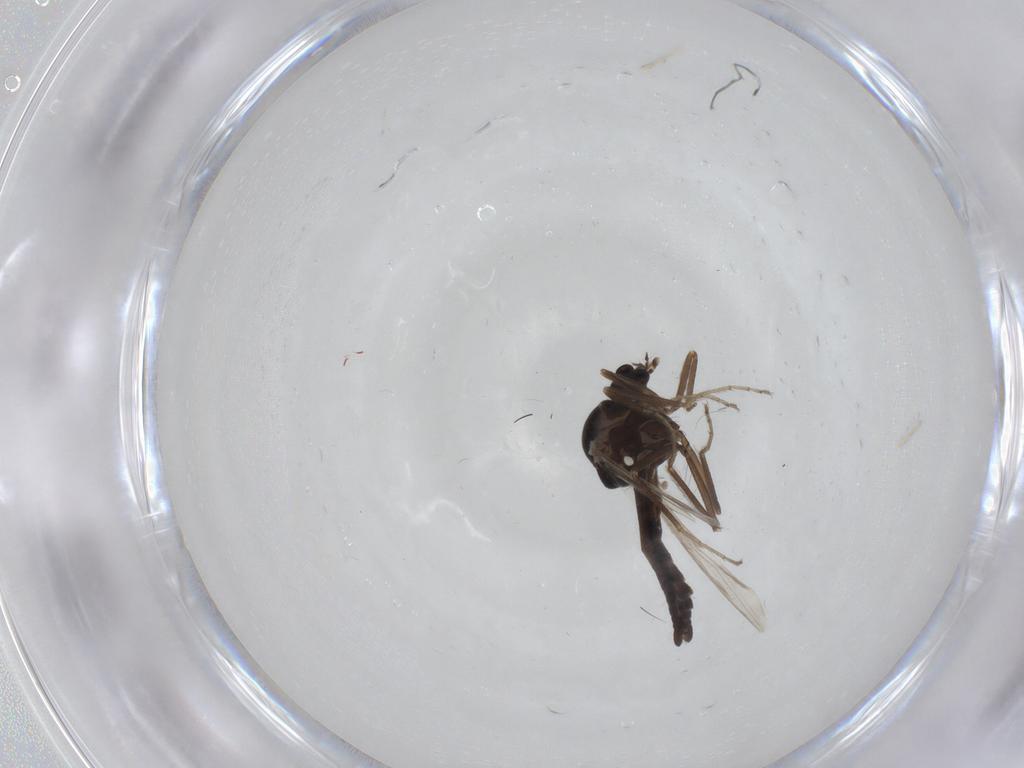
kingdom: Animalia
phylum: Arthropoda
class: Insecta
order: Diptera
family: Ceratopogonidae
